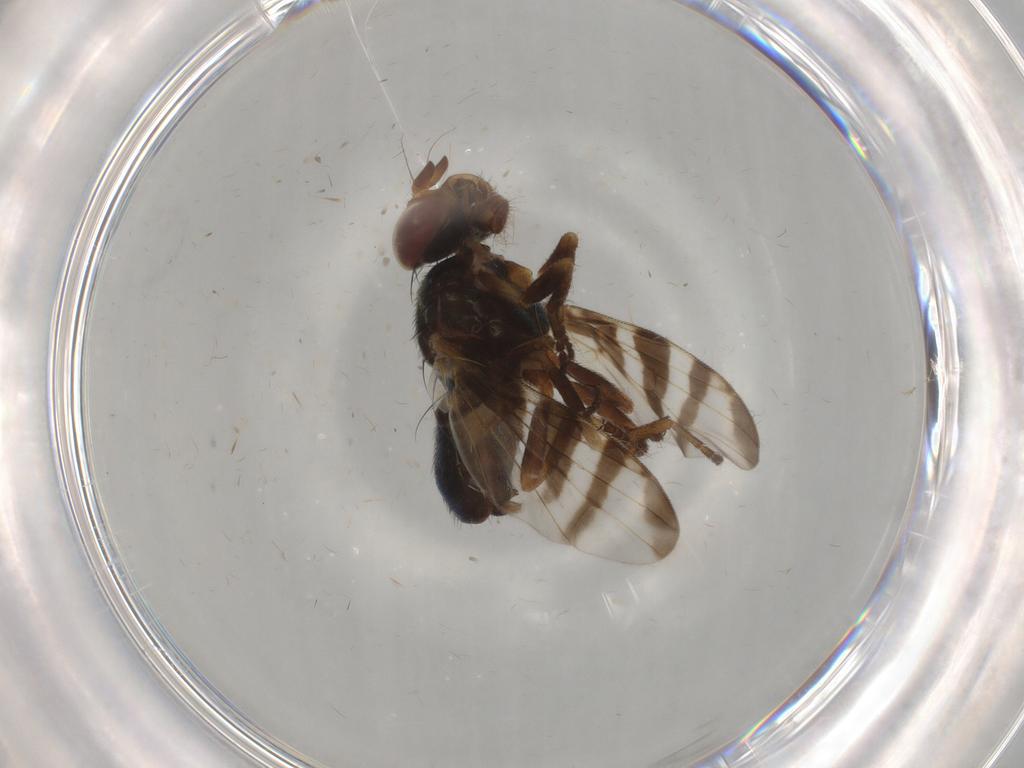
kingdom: Animalia
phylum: Arthropoda
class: Insecta
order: Diptera
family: Platystomatidae
